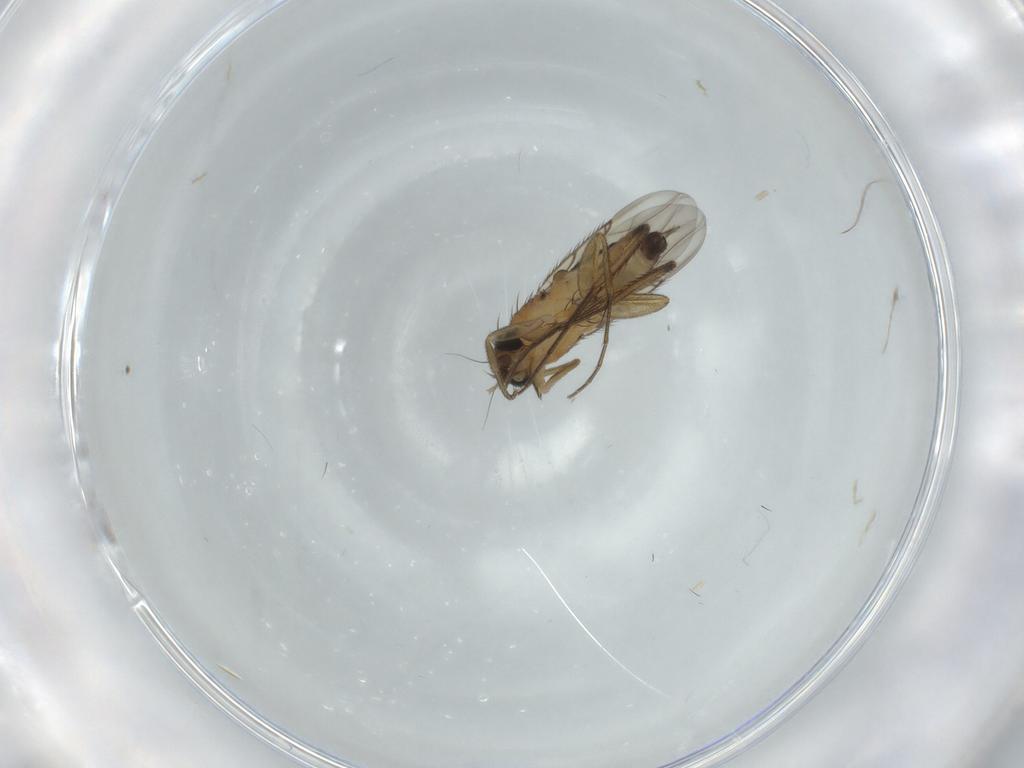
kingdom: Animalia
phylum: Arthropoda
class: Insecta
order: Diptera
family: Phoridae
